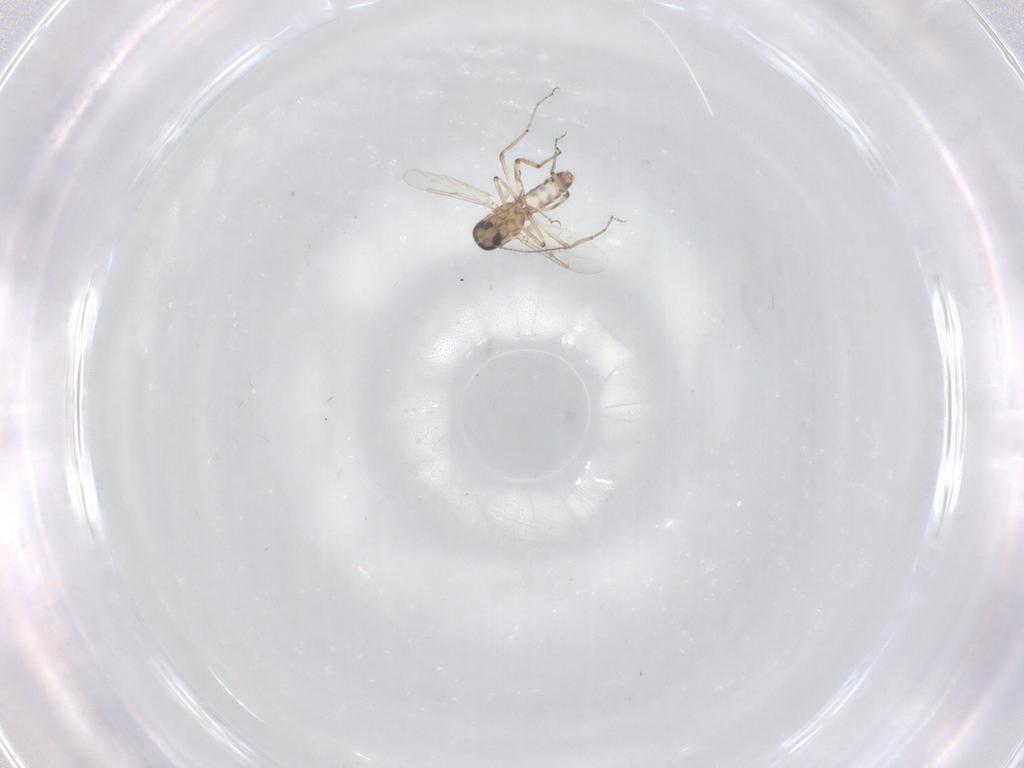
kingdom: Animalia
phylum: Arthropoda
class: Insecta
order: Diptera
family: Ceratopogonidae
